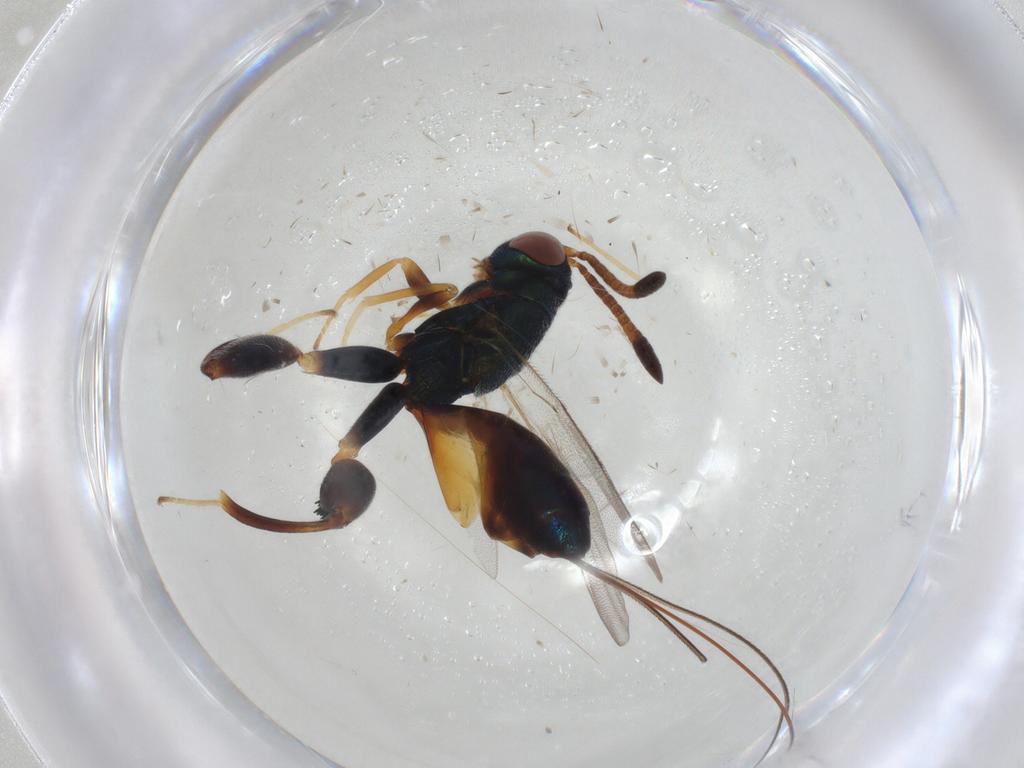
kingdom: Animalia
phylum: Arthropoda
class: Insecta
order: Hymenoptera
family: Torymidae
